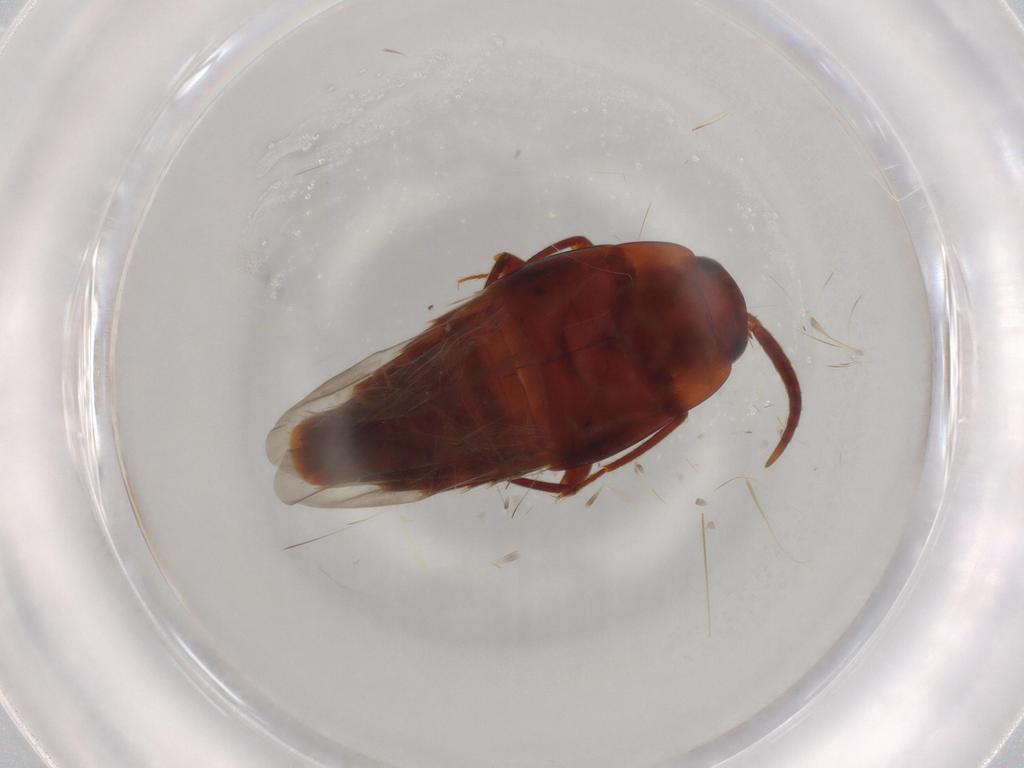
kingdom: Animalia
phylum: Arthropoda
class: Insecta
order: Coleoptera
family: Staphylinidae
